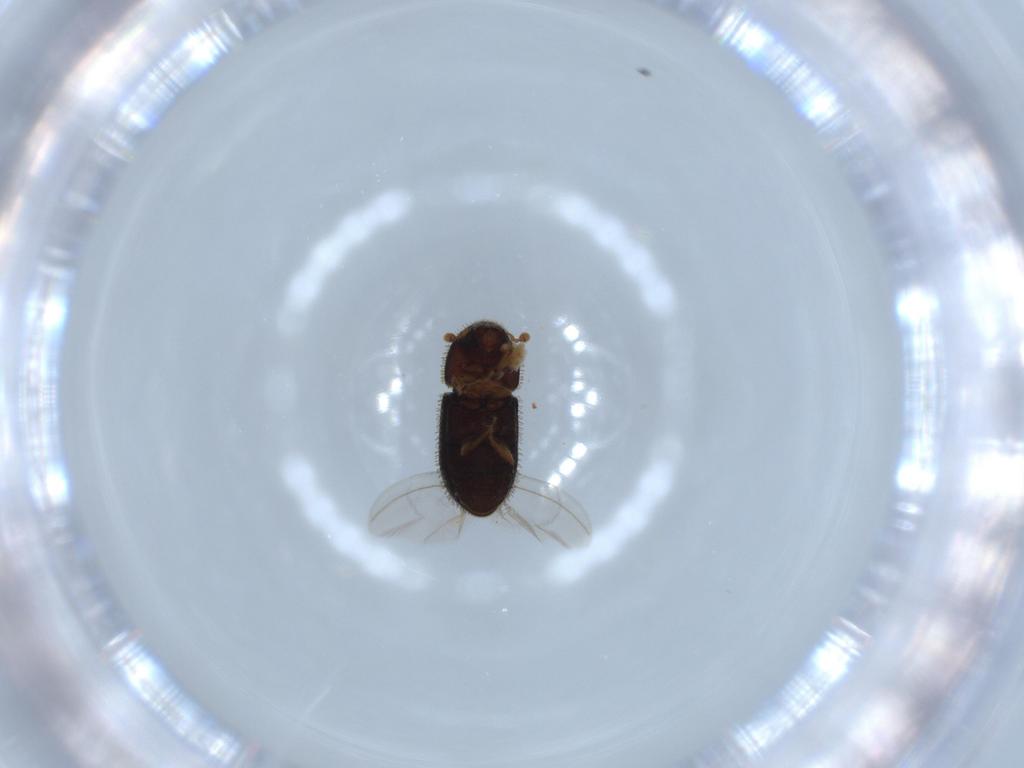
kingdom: Animalia
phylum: Arthropoda
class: Insecta
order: Coleoptera
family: Curculionidae
